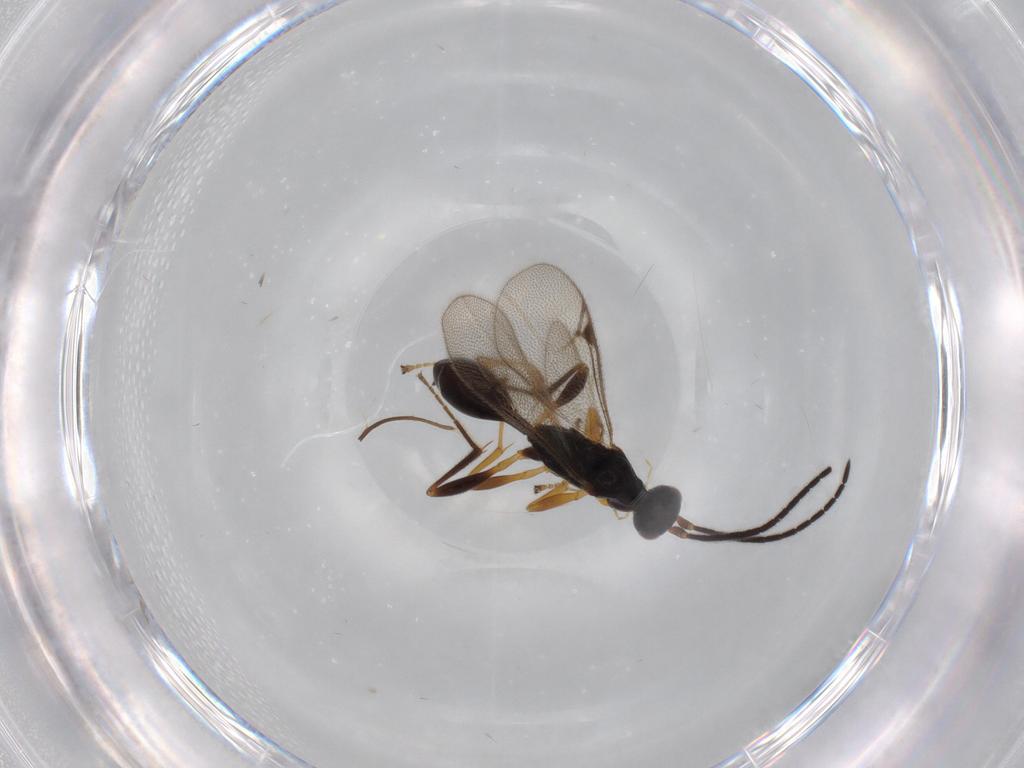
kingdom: Animalia
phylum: Arthropoda
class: Insecta
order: Hymenoptera
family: Proctotrupidae
